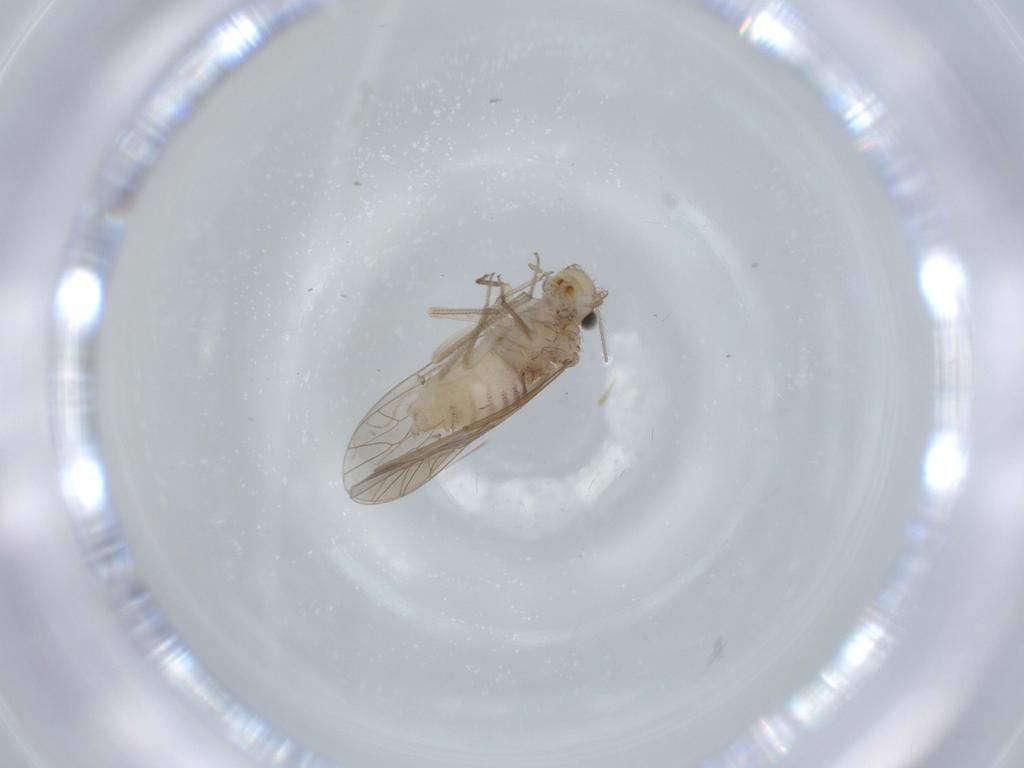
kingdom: Animalia
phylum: Arthropoda
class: Insecta
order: Psocodea
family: Caeciliusidae
